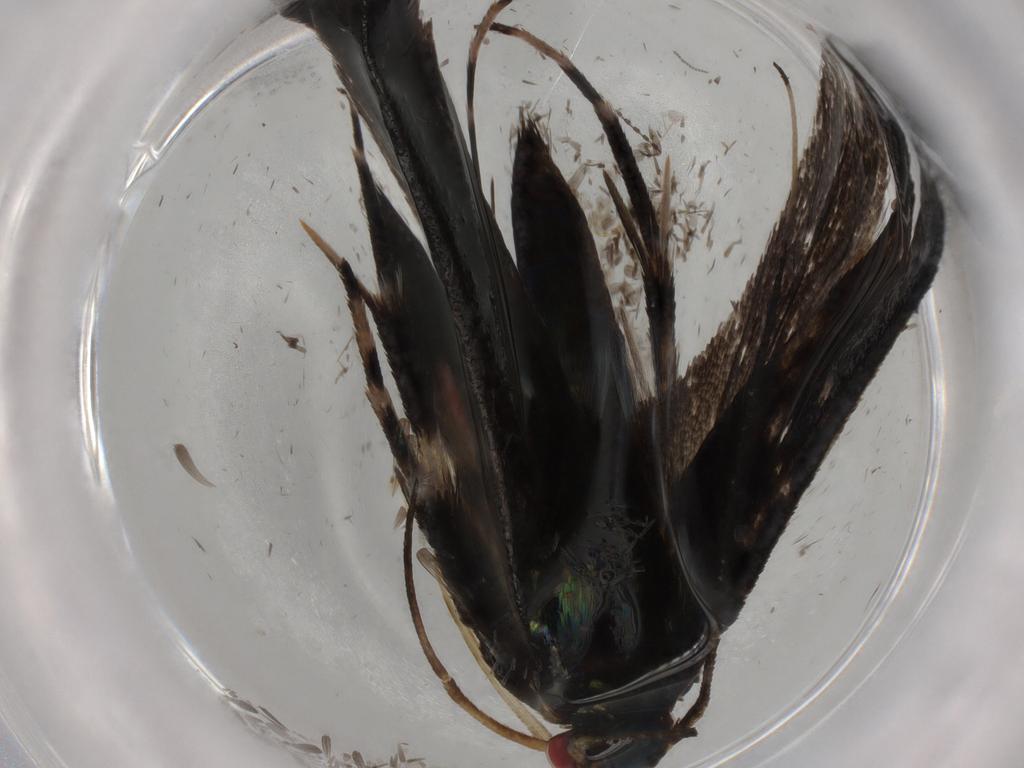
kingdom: Animalia
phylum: Arthropoda
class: Insecta
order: Lepidoptera
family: Gelechiidae
